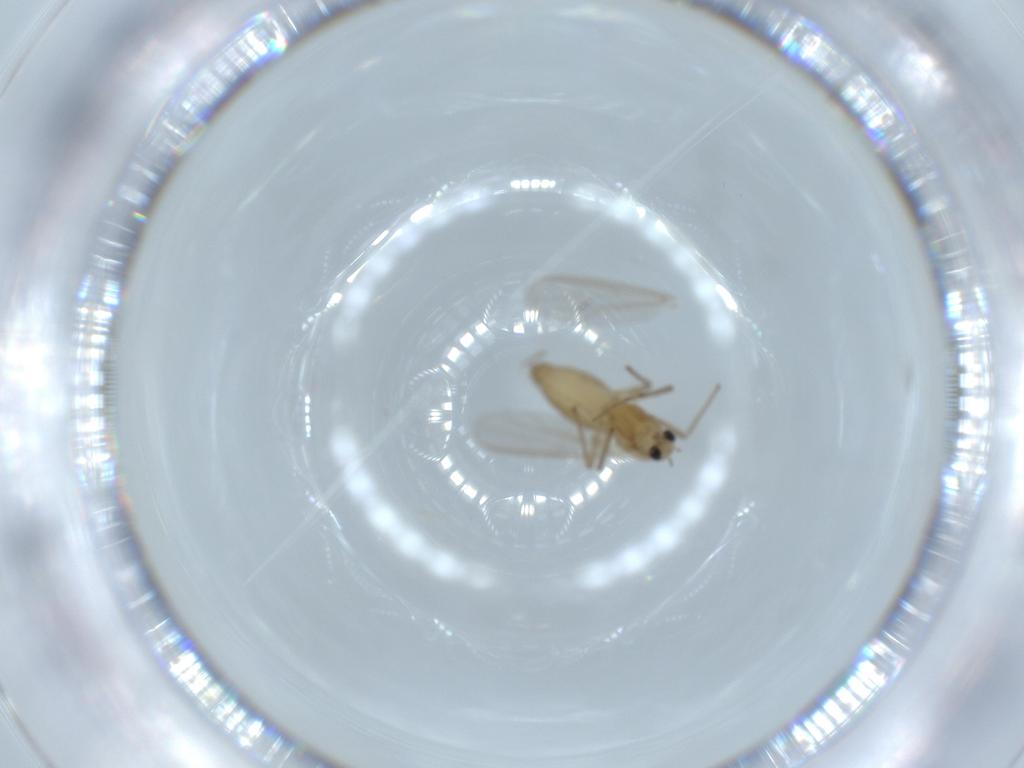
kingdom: Animalia
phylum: Arthropoda
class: Insecta
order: Diptera
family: Chironomidae
